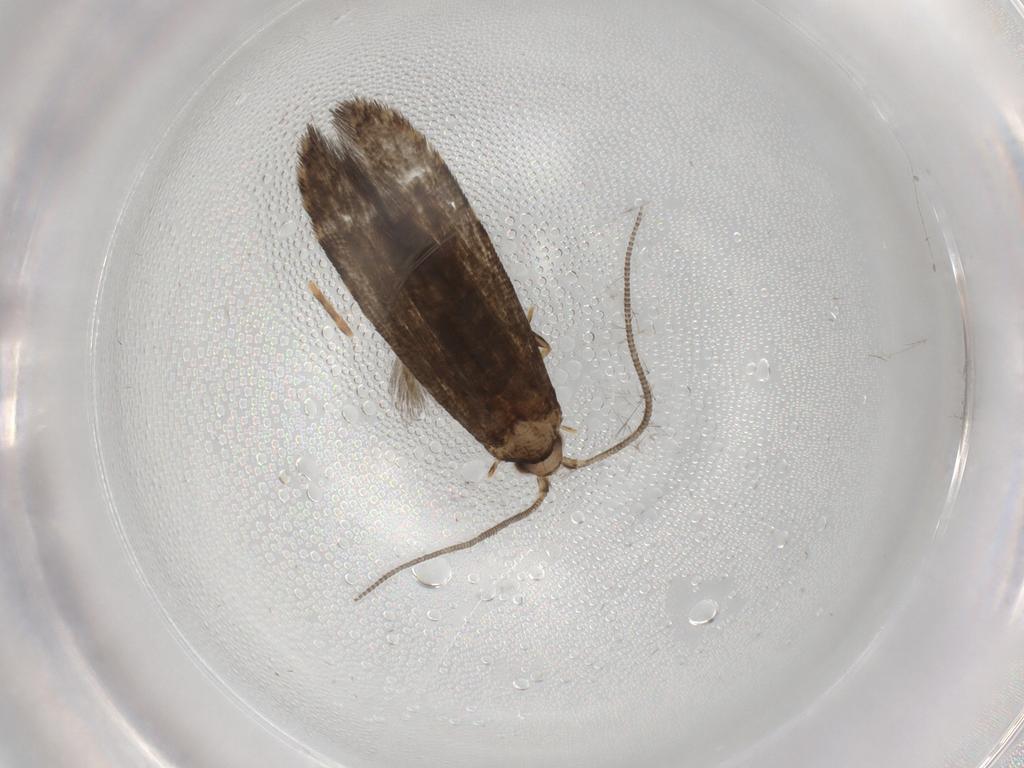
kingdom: Animalia
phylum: Arthropoda
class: Insecta
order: Lepidoptera
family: Tineidae
